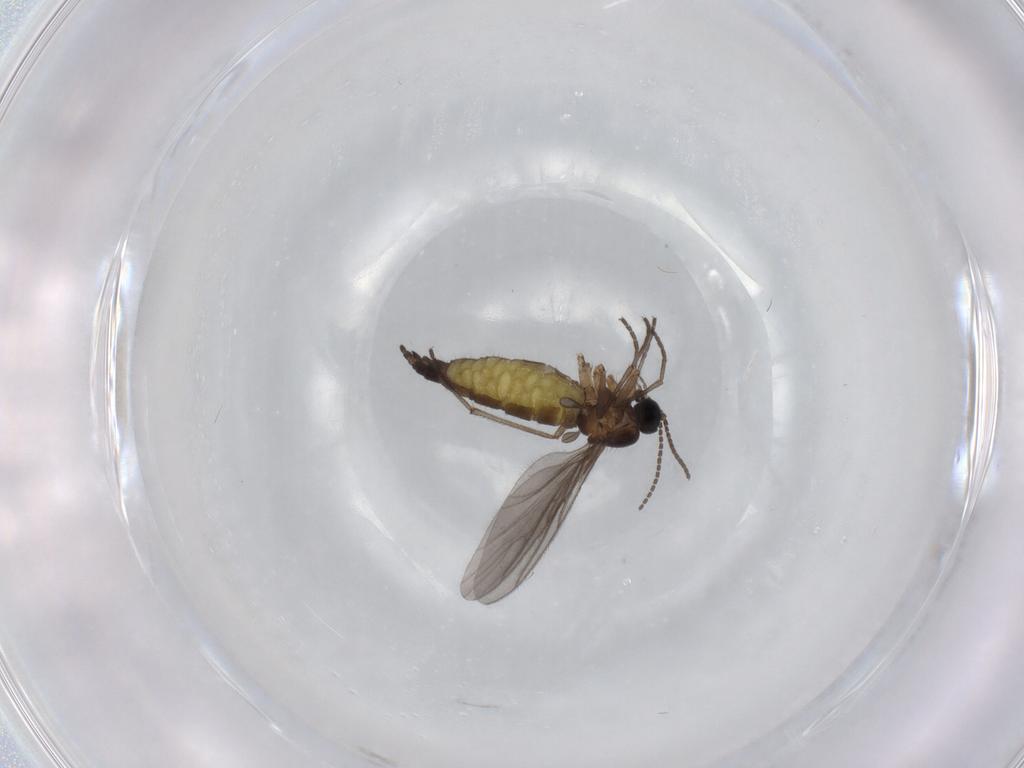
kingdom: Animalia
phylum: Arthropoda
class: Insecta
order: Diptera
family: Sciaridae
